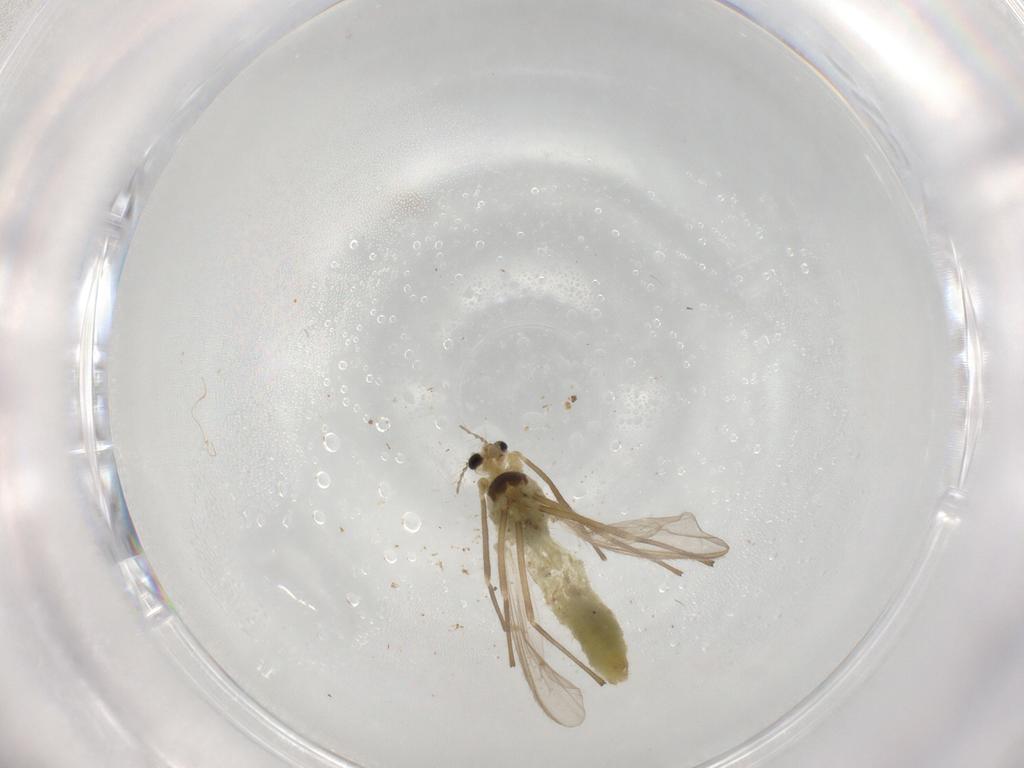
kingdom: Animalia
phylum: Arthropoda
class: Insecta
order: Diptera
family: Chironomidae
